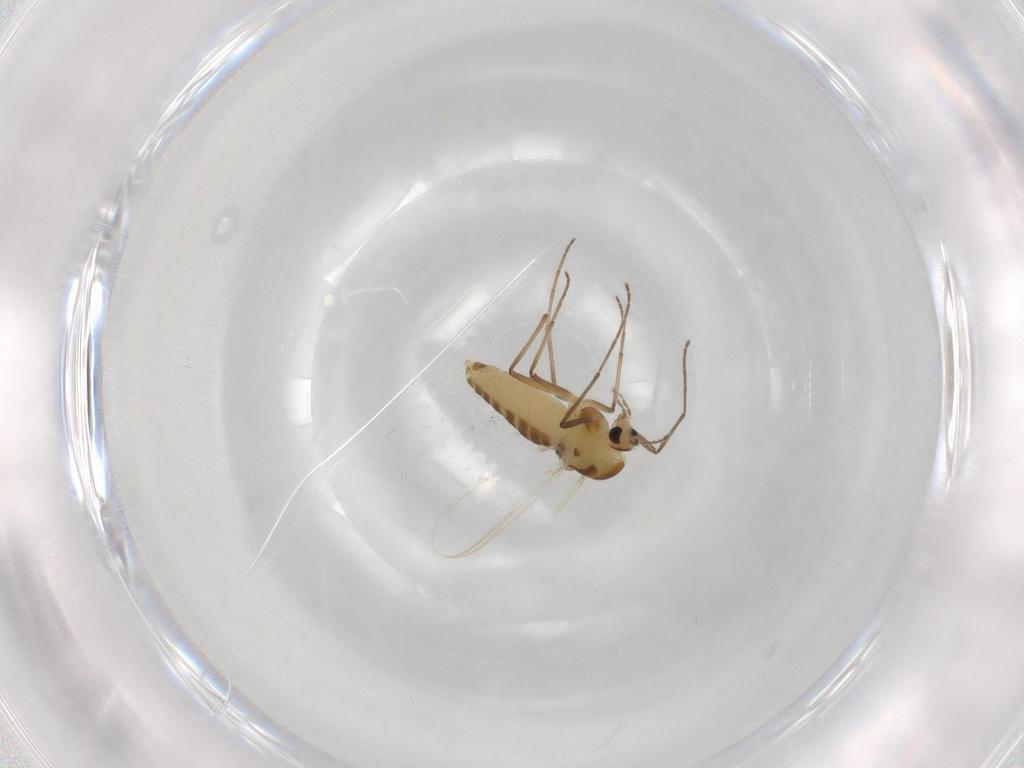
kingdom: Animalia
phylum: Arthropoda
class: Insecta
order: Diptera
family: Chironomidae
